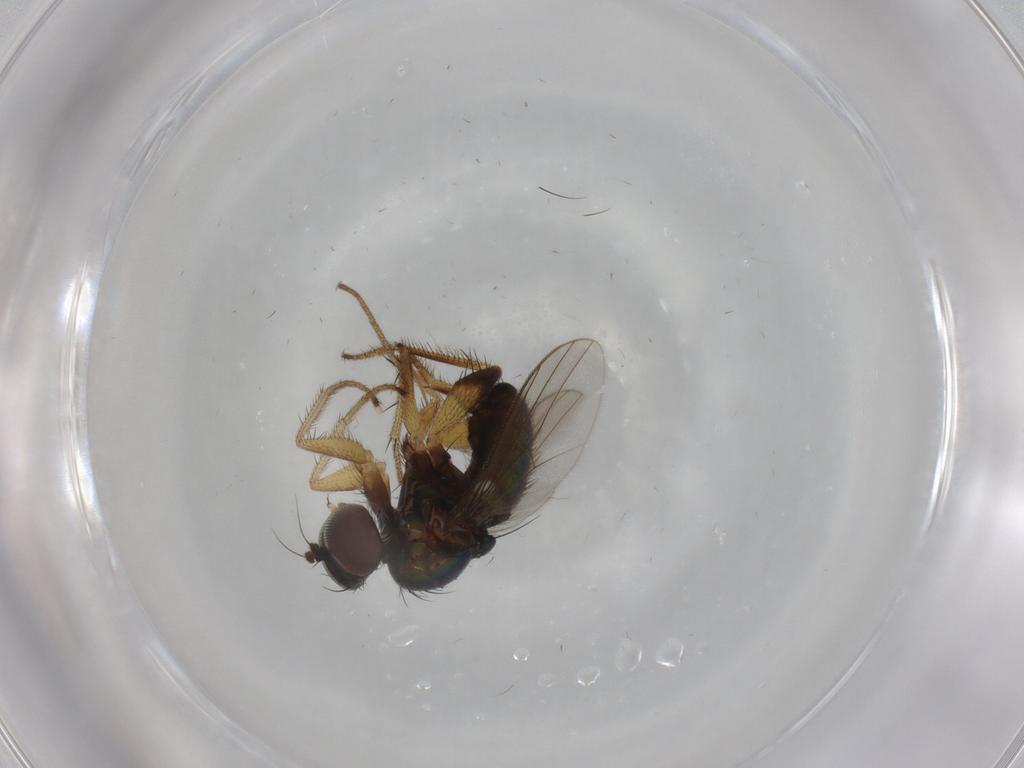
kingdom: Animalia
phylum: Arthropoda
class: Insecta
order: Diptera
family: Dolichopodidae
